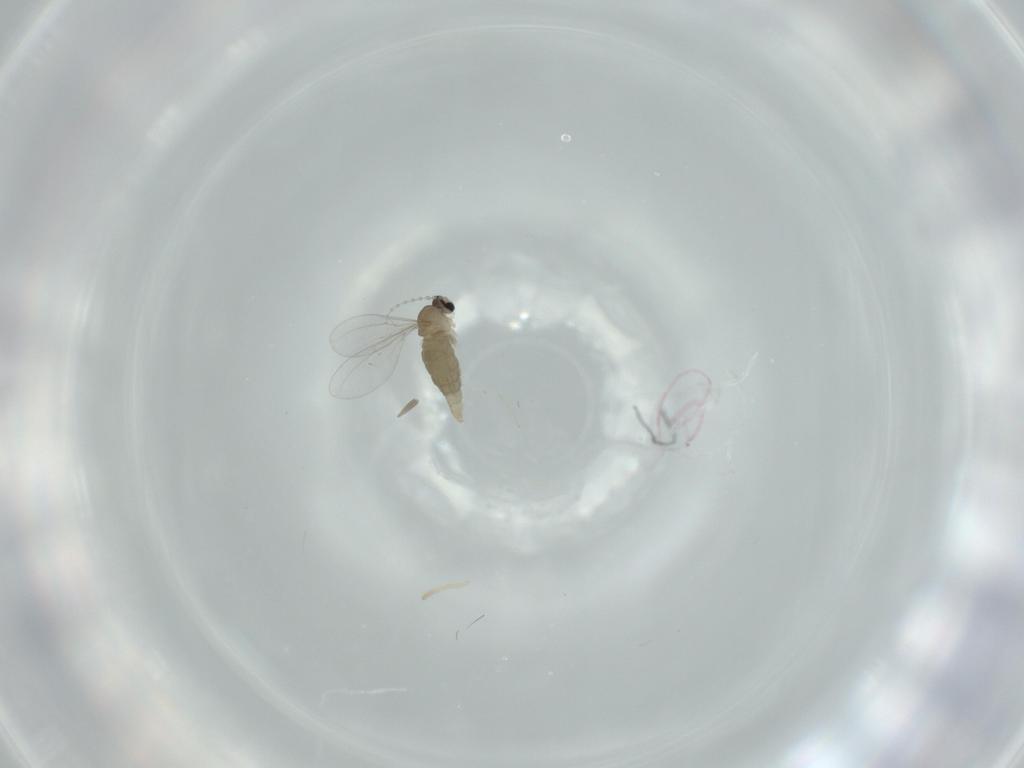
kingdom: Animalia
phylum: Arthropoda
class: Insecta
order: Diptera
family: Cecidomyiidae
